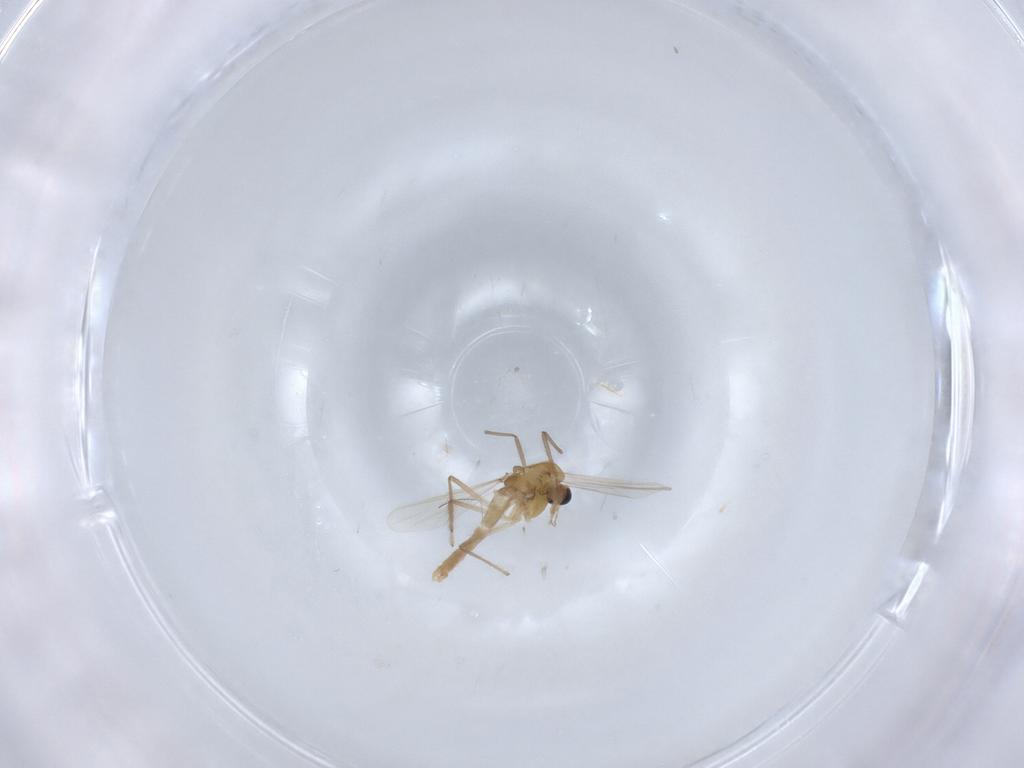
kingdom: Animalia
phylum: Arthropoda
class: Insecta
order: Diptera
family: Chironomidae
